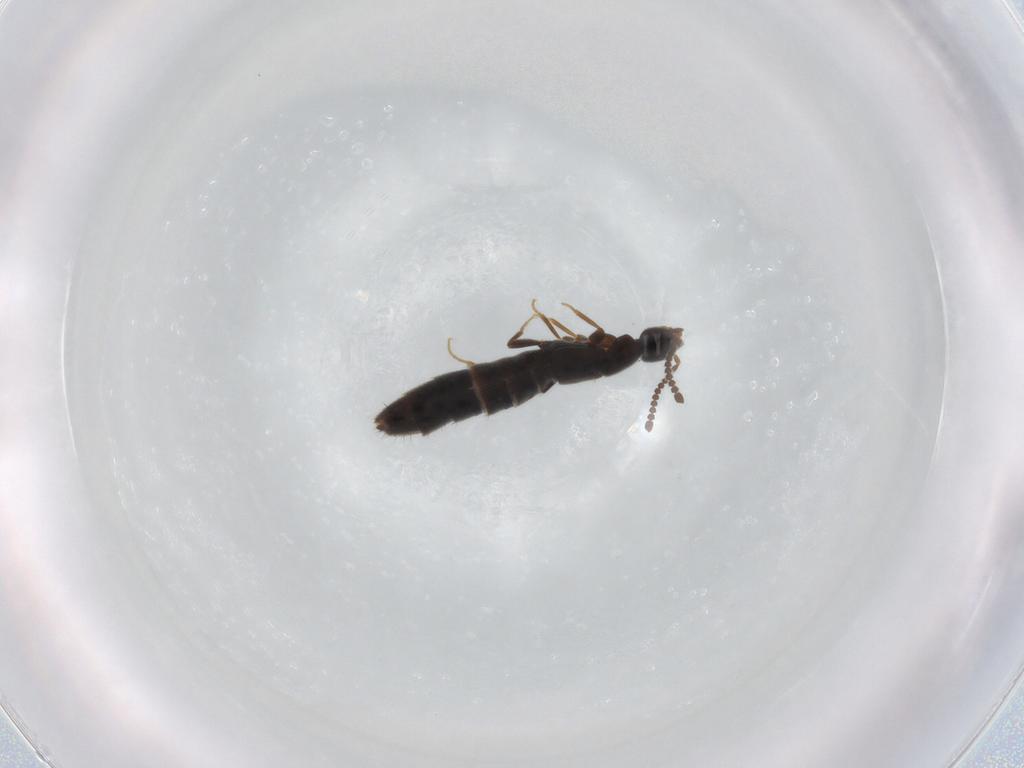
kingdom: Animalia
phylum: Arthropoda
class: Insecta
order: Coleoptera
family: Staphylinidae
